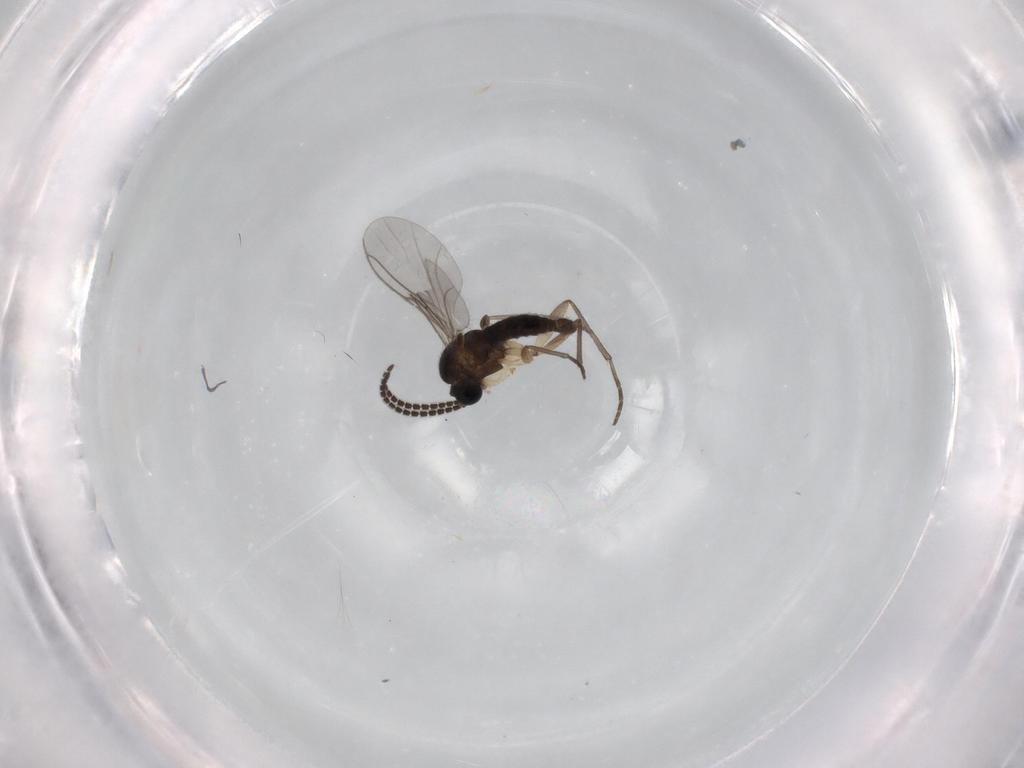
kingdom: Animalia
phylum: Arthropoda
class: Insecta
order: Diptera
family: Sciaridae
